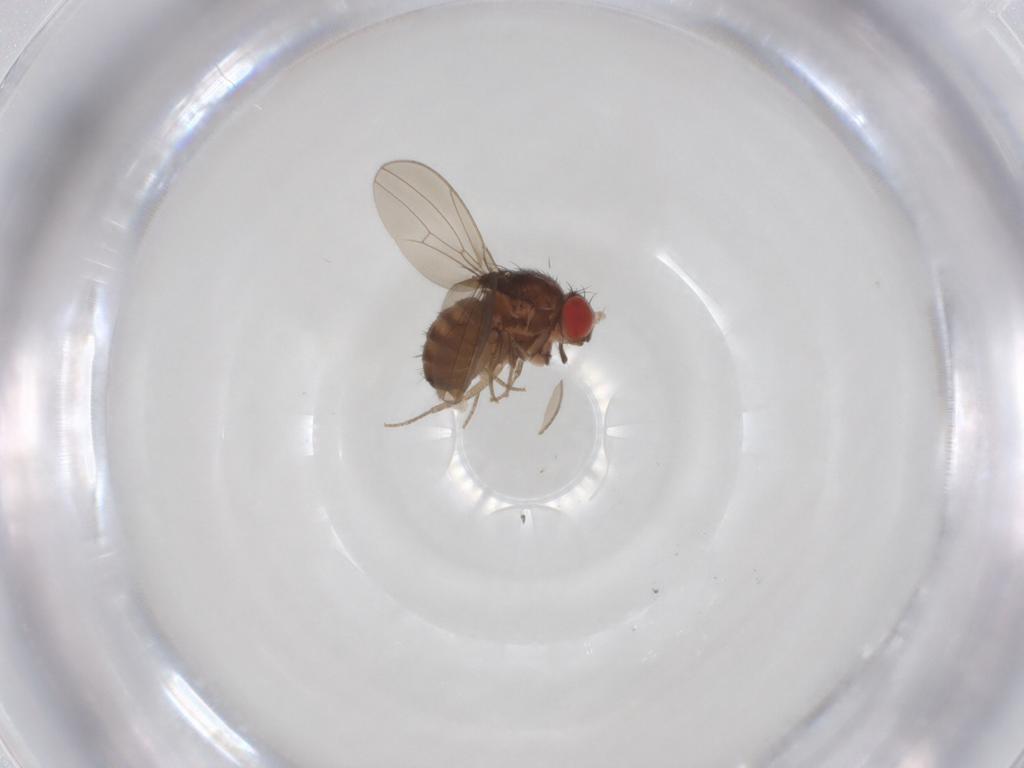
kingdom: Animalia
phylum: Arthropoda
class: Insecta
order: Diptera
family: Drosophilidae
